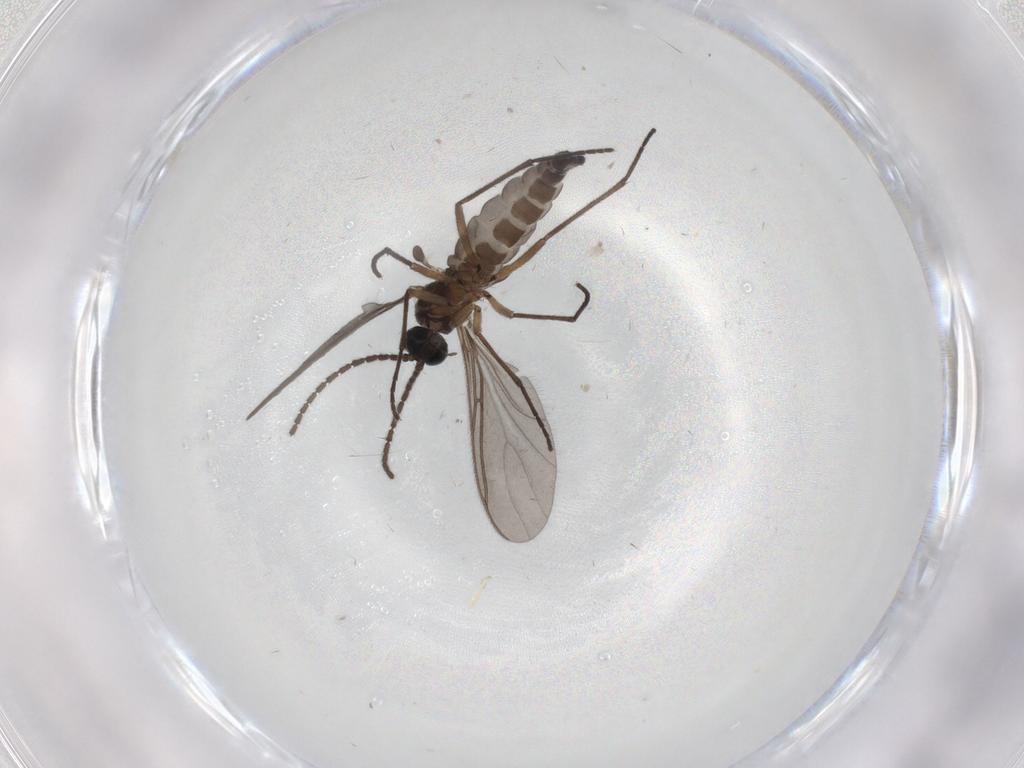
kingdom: Animalia
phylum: Arthropoda
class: Insecta
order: Diptera
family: Sciaridae
